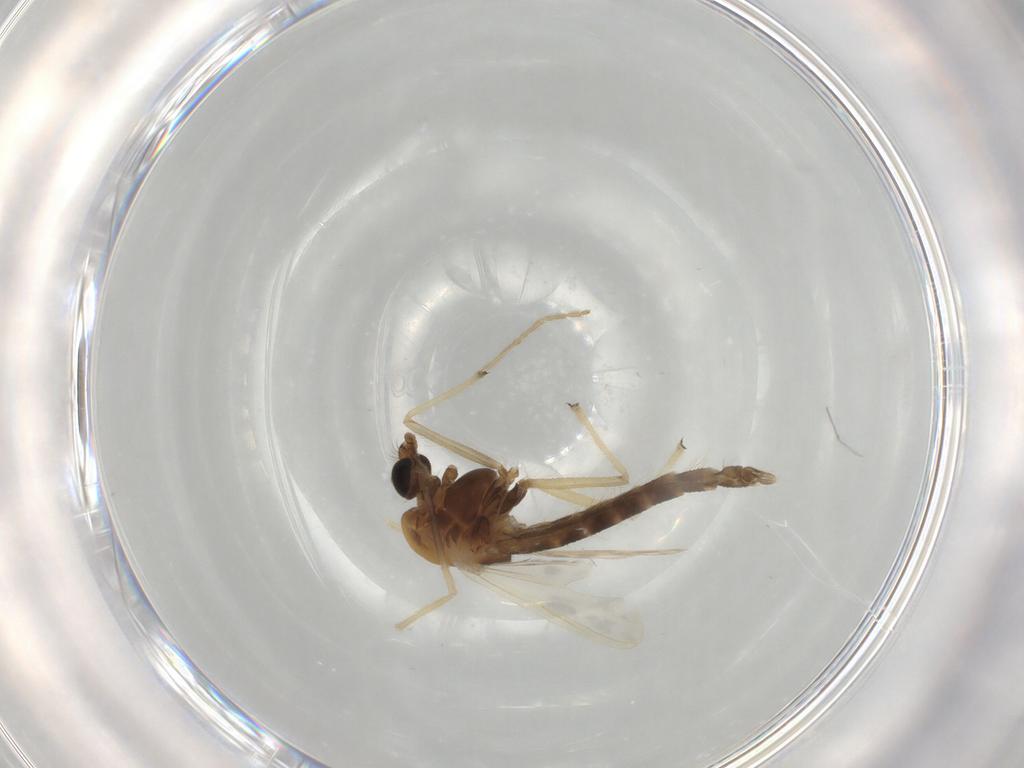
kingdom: Animalia
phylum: Arthropoda
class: Insecta
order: Diptera
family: Chironomidae
